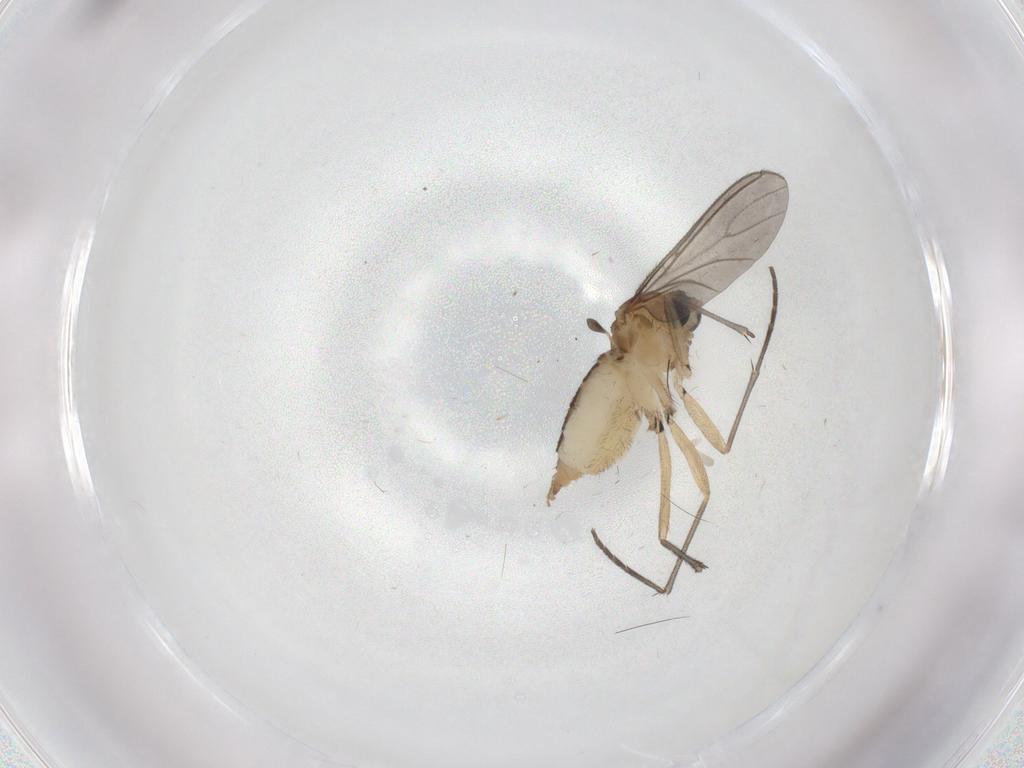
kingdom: Animalia
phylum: Arthropoda
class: Insecta
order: Diptera
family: Sciaridae
